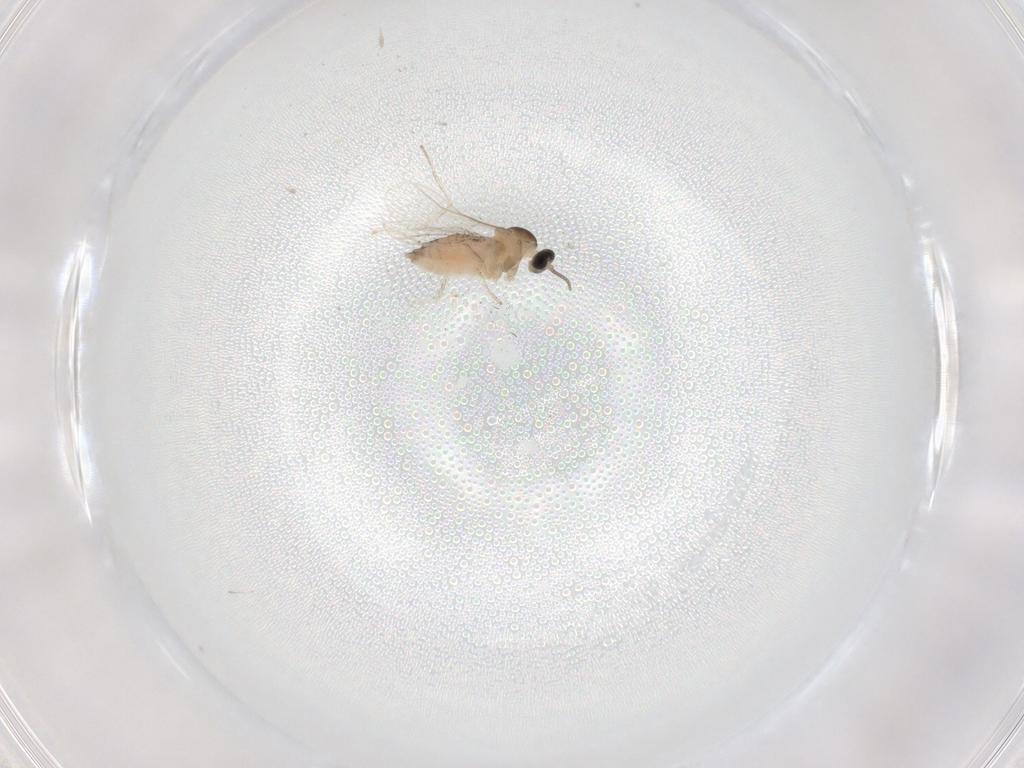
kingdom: Animalia
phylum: Arthropoda
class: Insecta
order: Diptera
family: Cecidomyiidae
